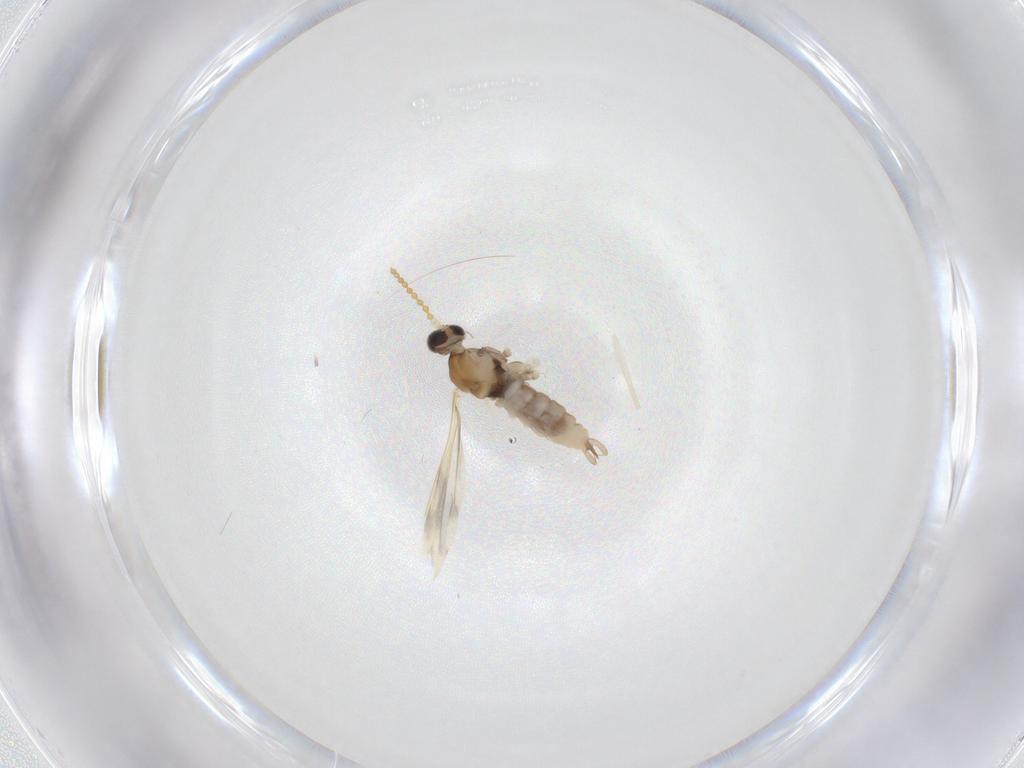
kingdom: Animalia
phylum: Arthropoda
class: Insecta
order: Diptera
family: Cecidomyiidae
